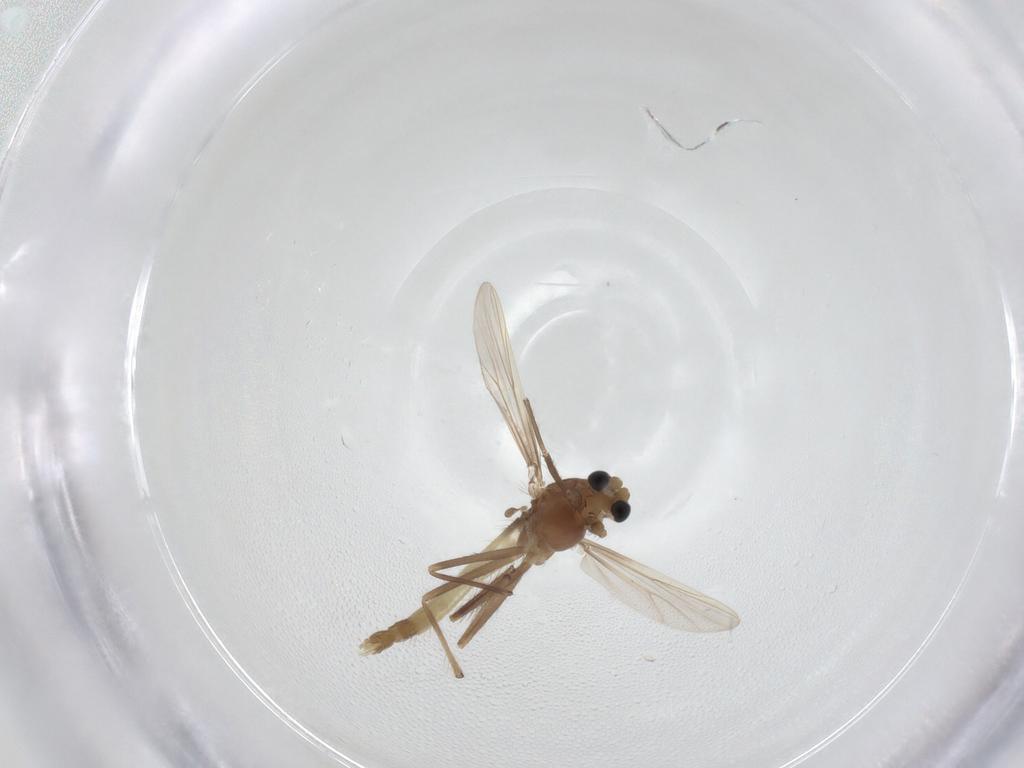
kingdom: Animalia
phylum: Arthropoda
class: Insecta
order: Diptera
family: Chironomidae
